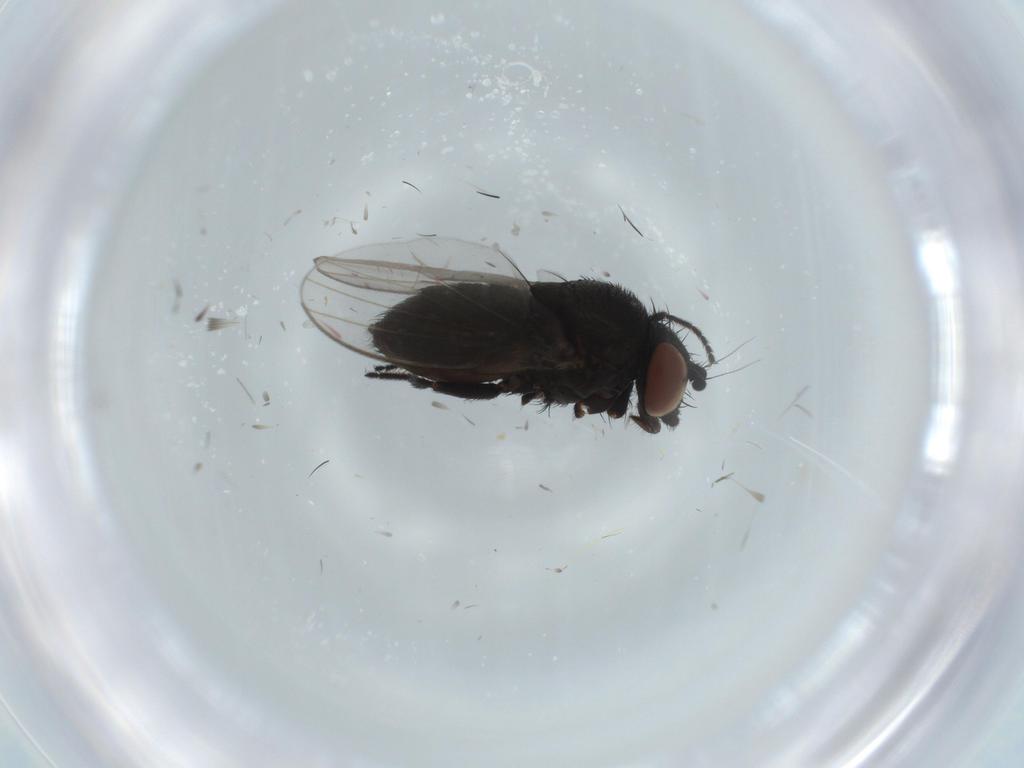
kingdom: Animalia
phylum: Arthropoda
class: Insecta
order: Diptera
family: Milichiidae
